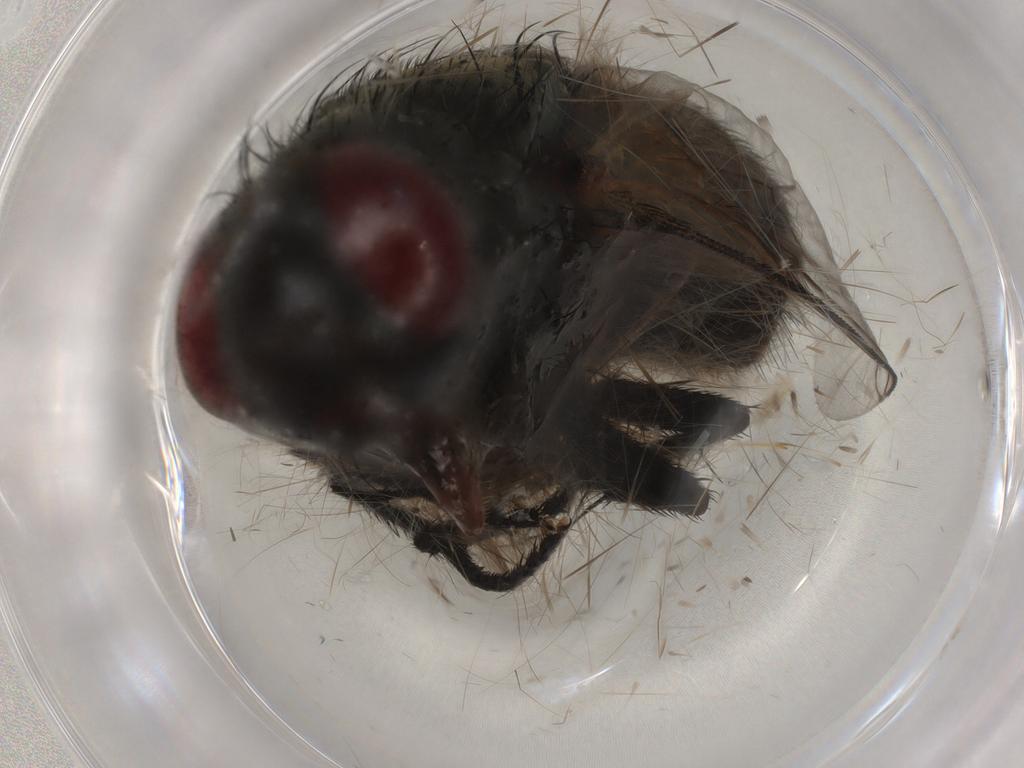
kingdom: Animalia
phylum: Arthropoda
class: Insecta
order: Diptera
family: Sarcophagidae
